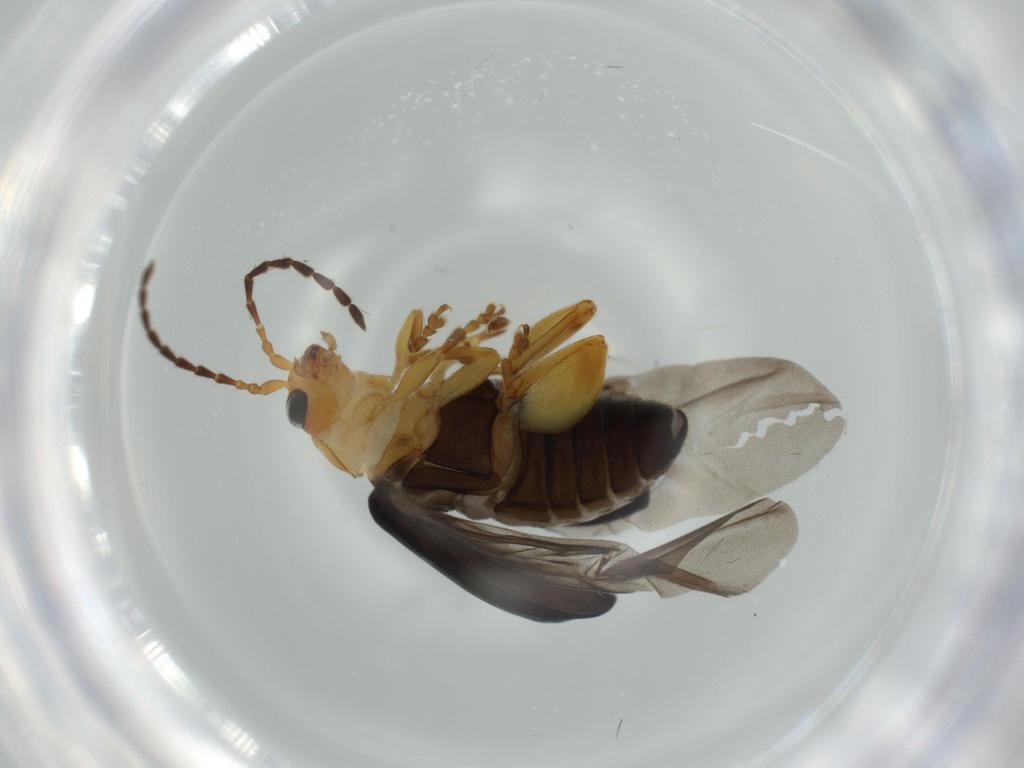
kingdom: Animalia
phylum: Arthropoda
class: Insecta
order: Coleoptera
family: Chrysomelidae
